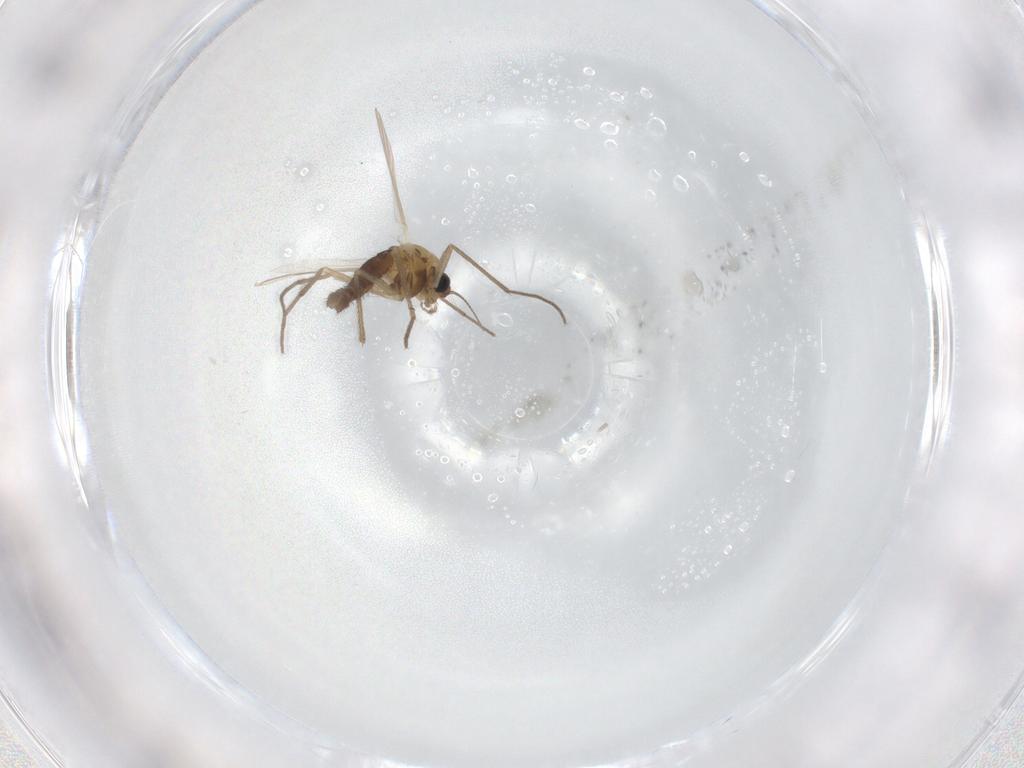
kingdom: Animalia
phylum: Arthropoda
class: Insecta
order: Diptera
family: Chironomidae
